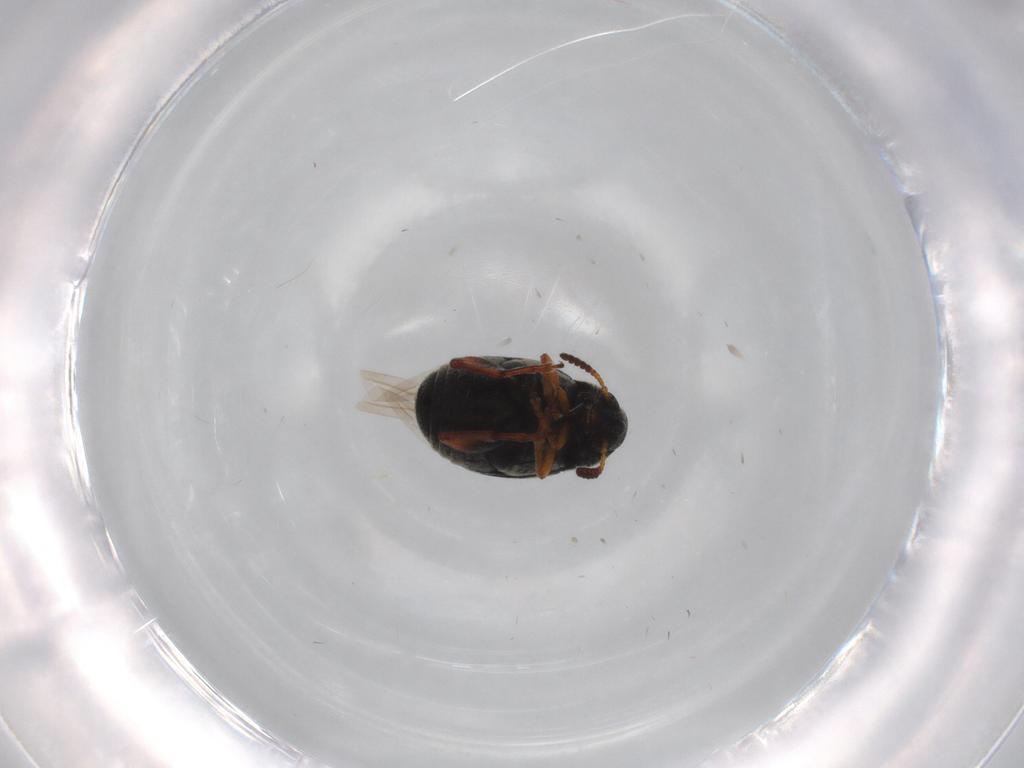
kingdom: Animalia
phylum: Arthropoda
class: Insecta
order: Coleoptera
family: Chrysomelidae
